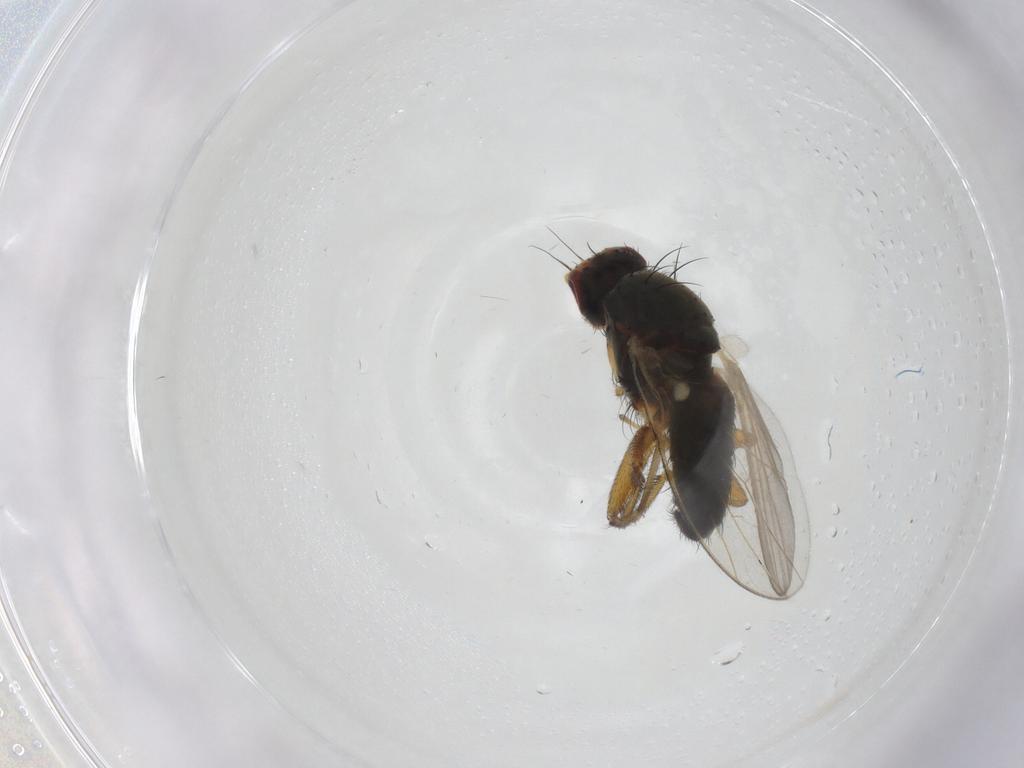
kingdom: Animalia
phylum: Arthropoda
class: Insecta
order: Diptera
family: Heleomyzidae
